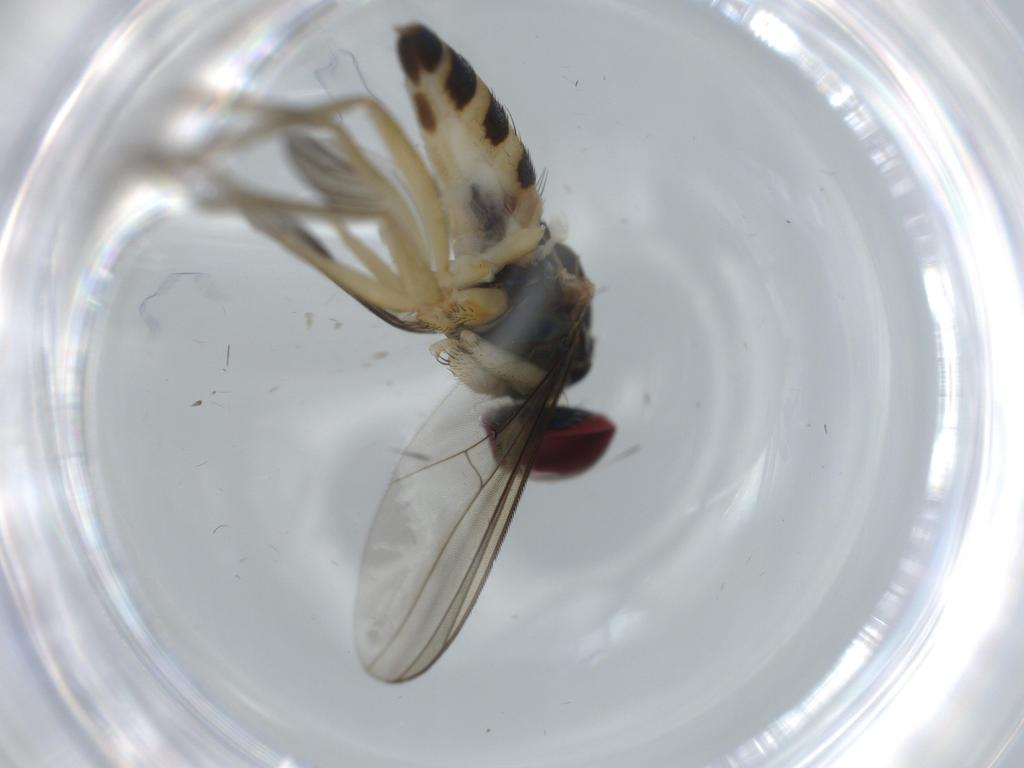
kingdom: Animalia
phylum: Arthropoda
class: Insecta
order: Diptera
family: Dolichopodidae
